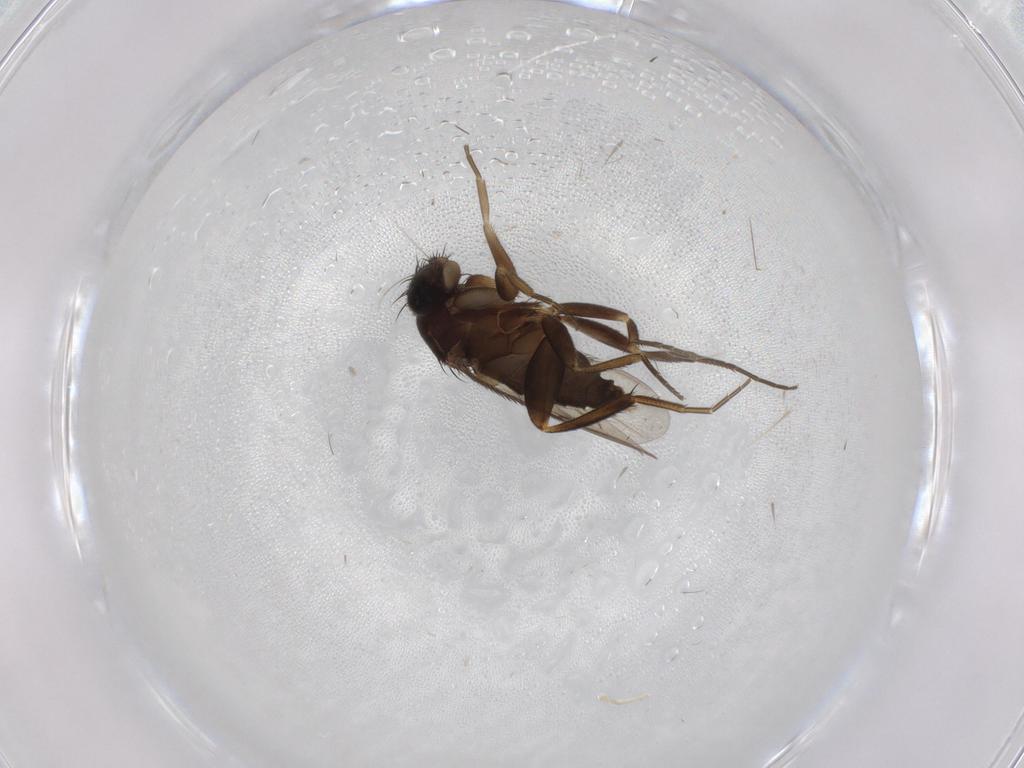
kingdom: Animalia
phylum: Arthropoda
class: Insecta
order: Diptera
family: Phoridae
